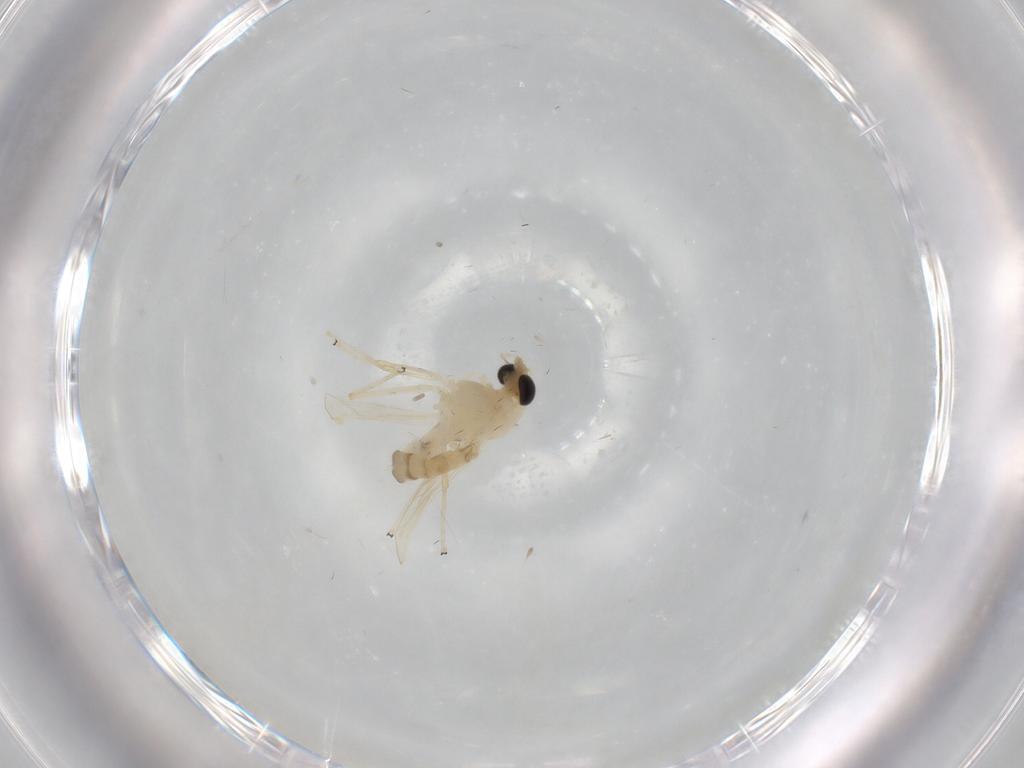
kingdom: Animalia
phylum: Arthropoda
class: Insecta
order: Diptera
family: Chironomidae
